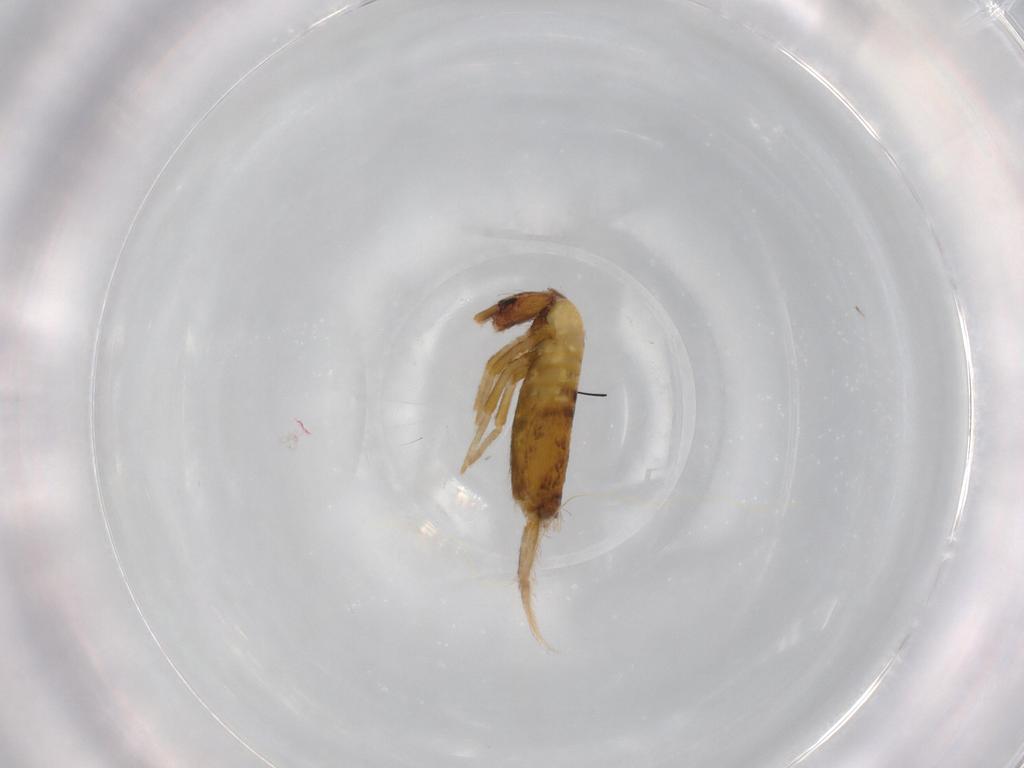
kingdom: Animalia
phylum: Arthropoda
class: Collembola
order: Entomobryomorpha
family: Entomobryidae
